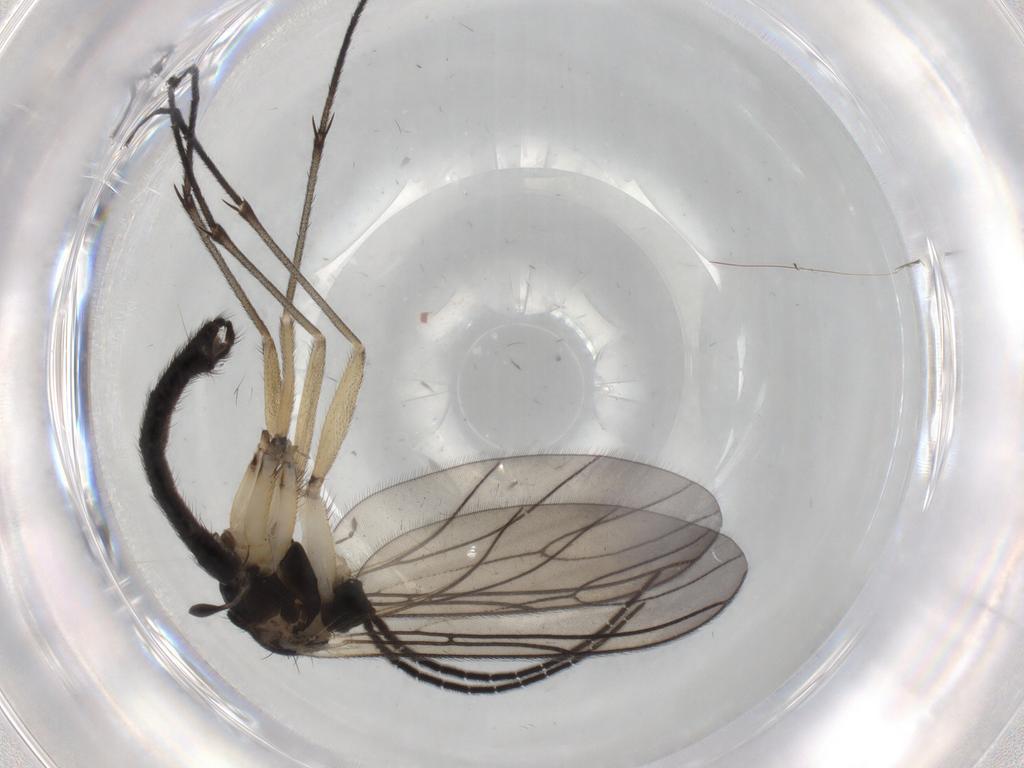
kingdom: Animalia
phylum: Arthropoda
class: Insecta
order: Diptera
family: Sciaridae
